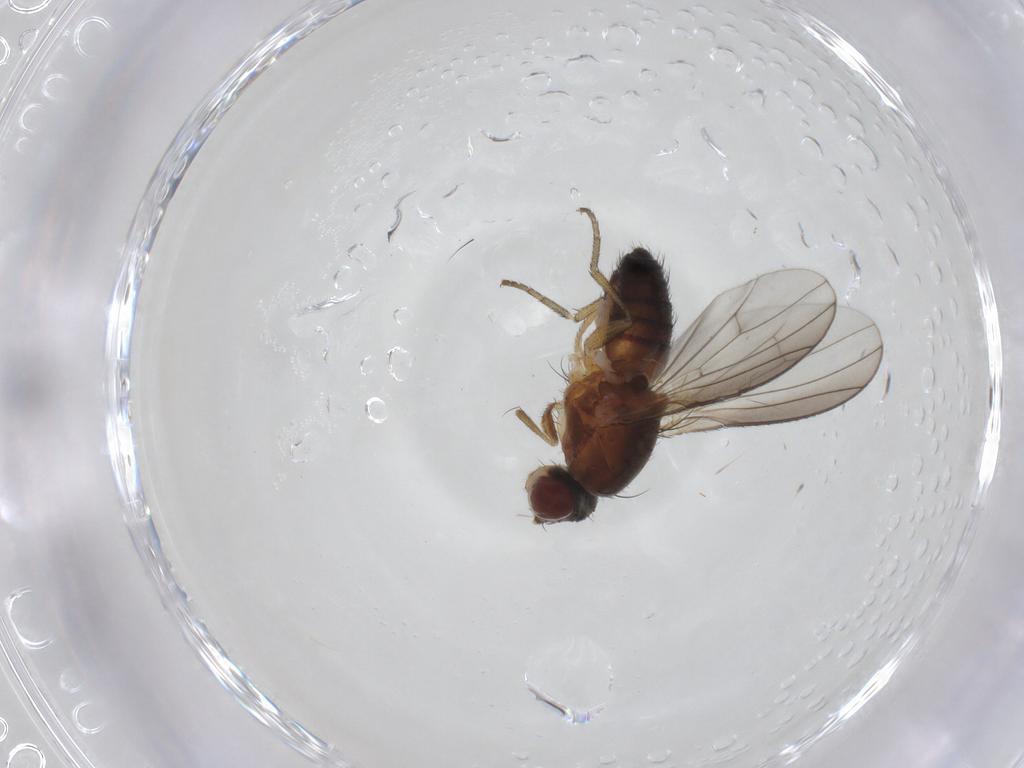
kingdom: Animalia
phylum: Arthropoda
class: Insecta
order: Diptera
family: Heleomyzidae
